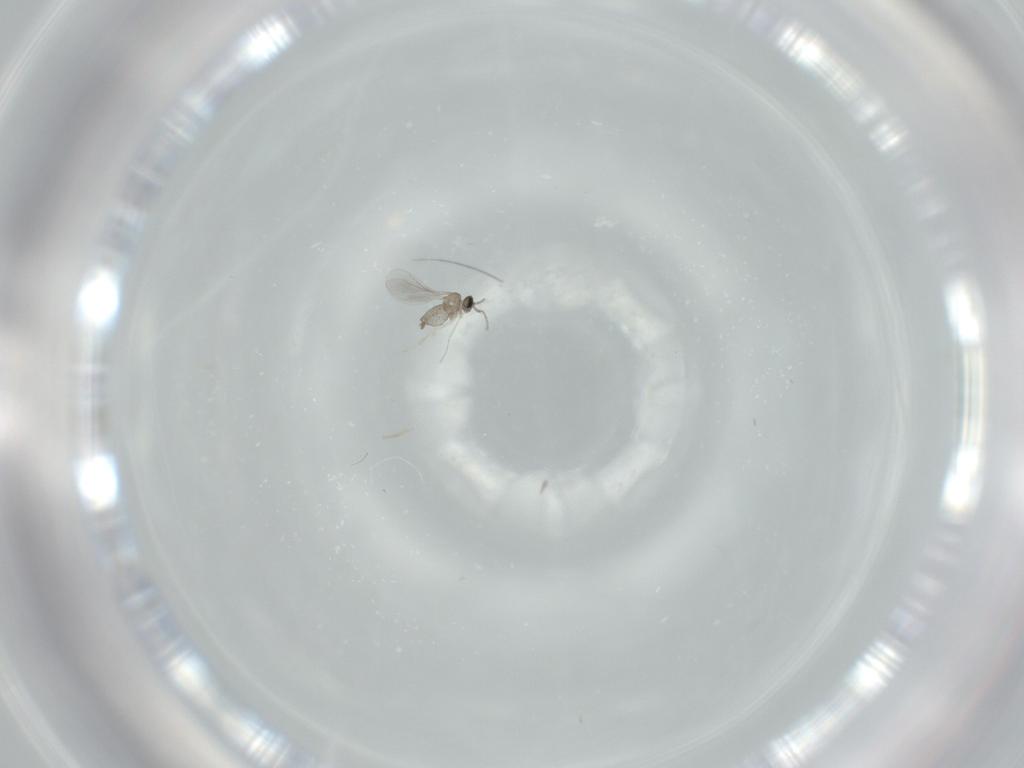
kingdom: Animalia
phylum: Arthropoda
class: Insecta
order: Diptera
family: Cecidomyiidae
